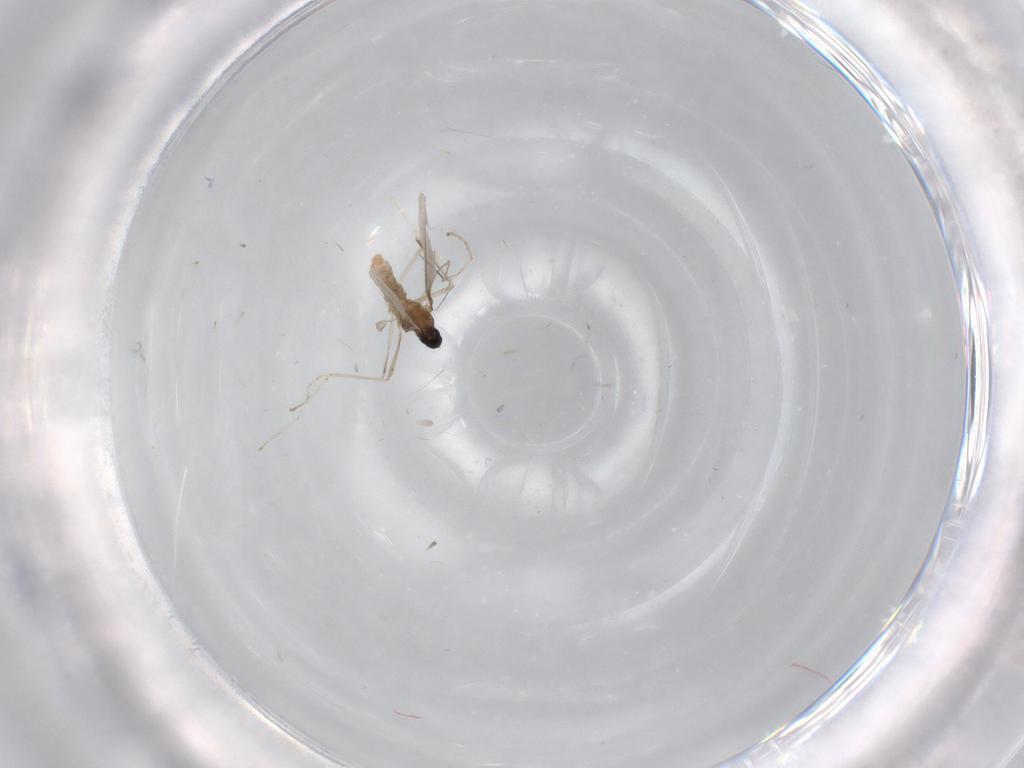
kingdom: Animalia
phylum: Arthropoda
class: Insecta
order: Diptera
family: Cecidomyiidae
